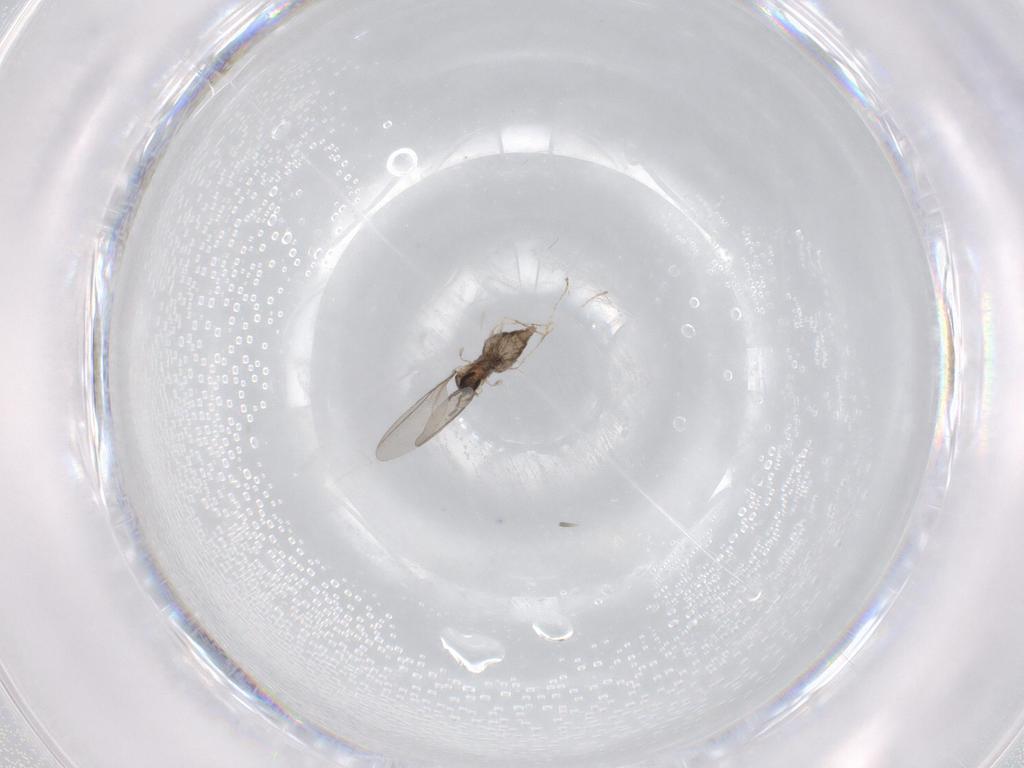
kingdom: Animalia
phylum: Arthropoda
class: Insecta
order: Diptera
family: Cecidomyiidae
